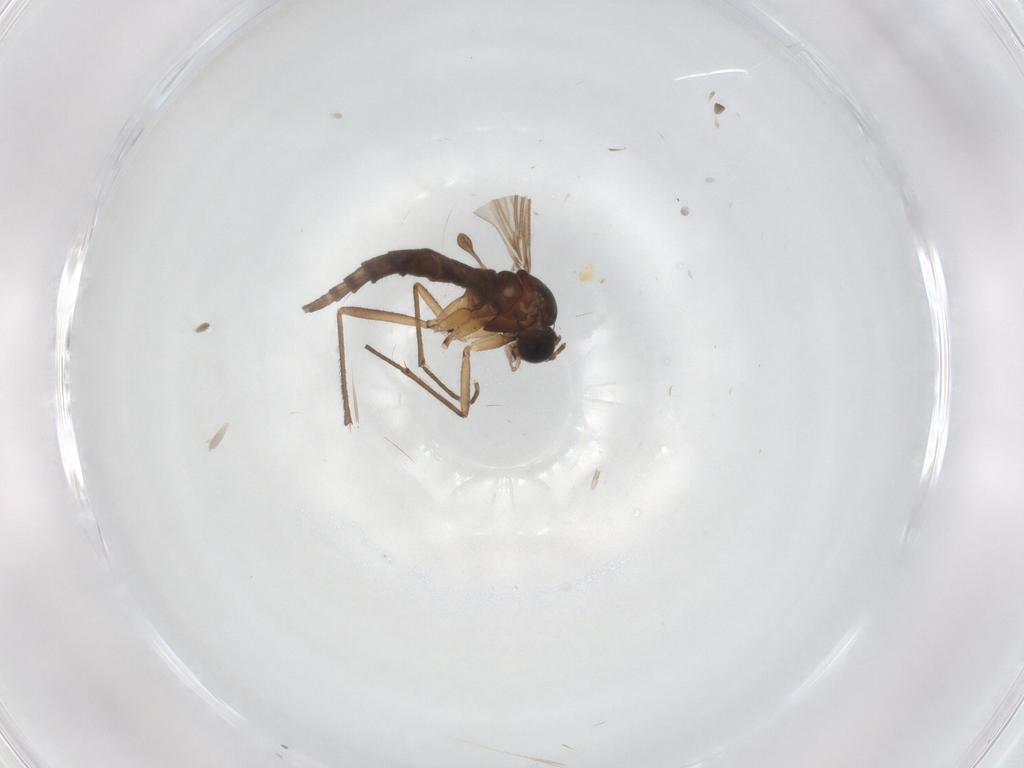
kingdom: Animalia
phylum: Arthropoda
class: Insecta
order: Diptera
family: Sciaridae
